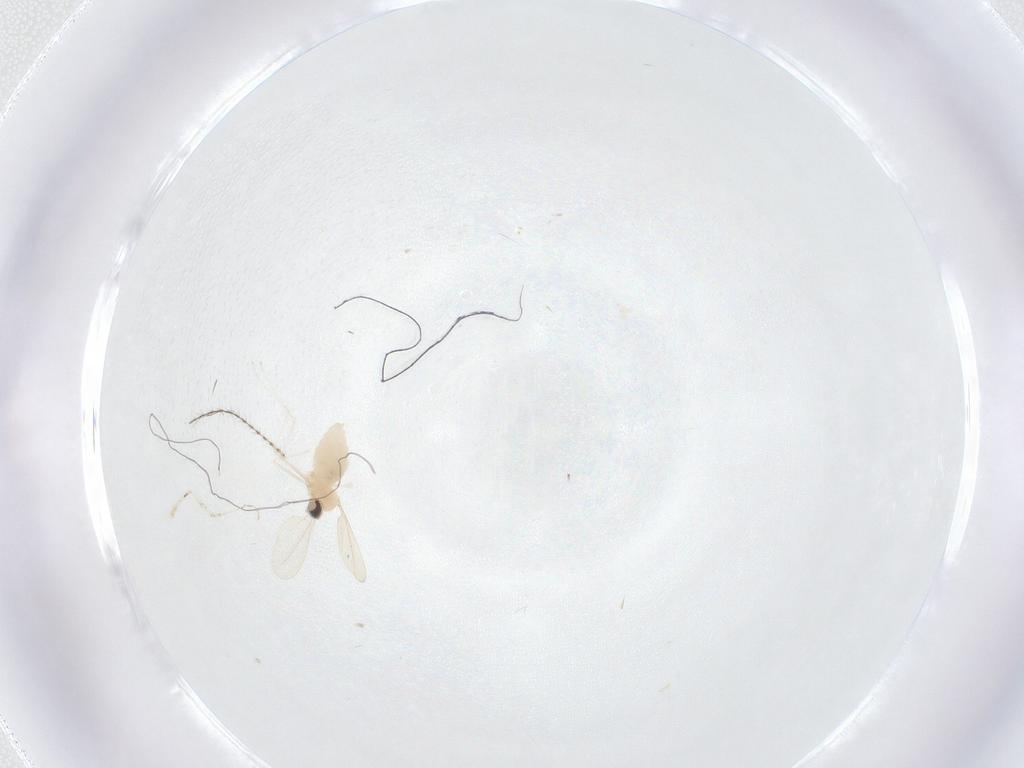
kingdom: Animalia
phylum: Arthropoda
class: Insecta
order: Diptera
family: Cecidomyiidae
